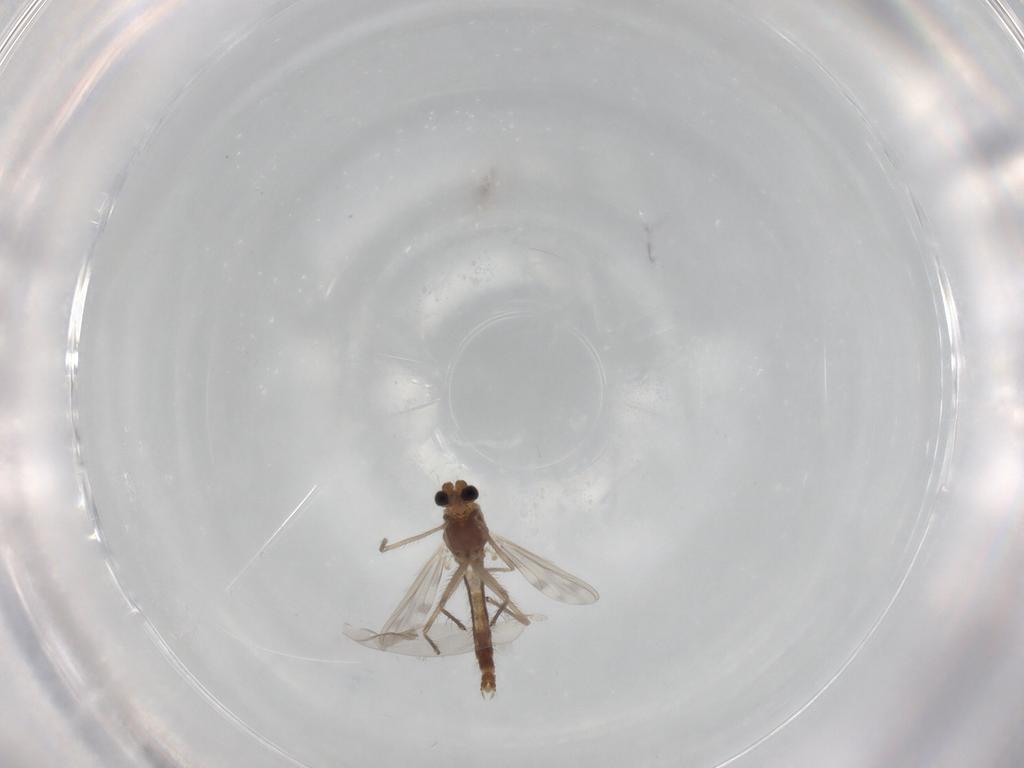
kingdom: Animalia
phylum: Arthropoda
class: Insecta
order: Diptera
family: Chironomidae
